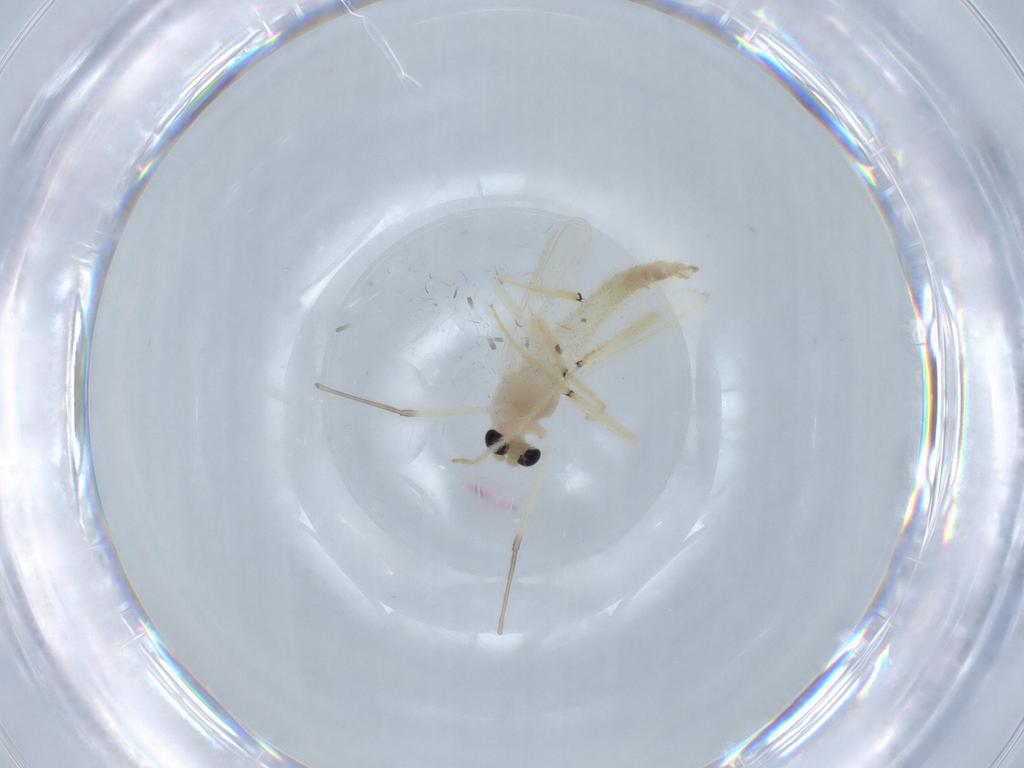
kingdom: Animalia
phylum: Arthropoda
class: Insecta
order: Diptera
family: Chironomidae
